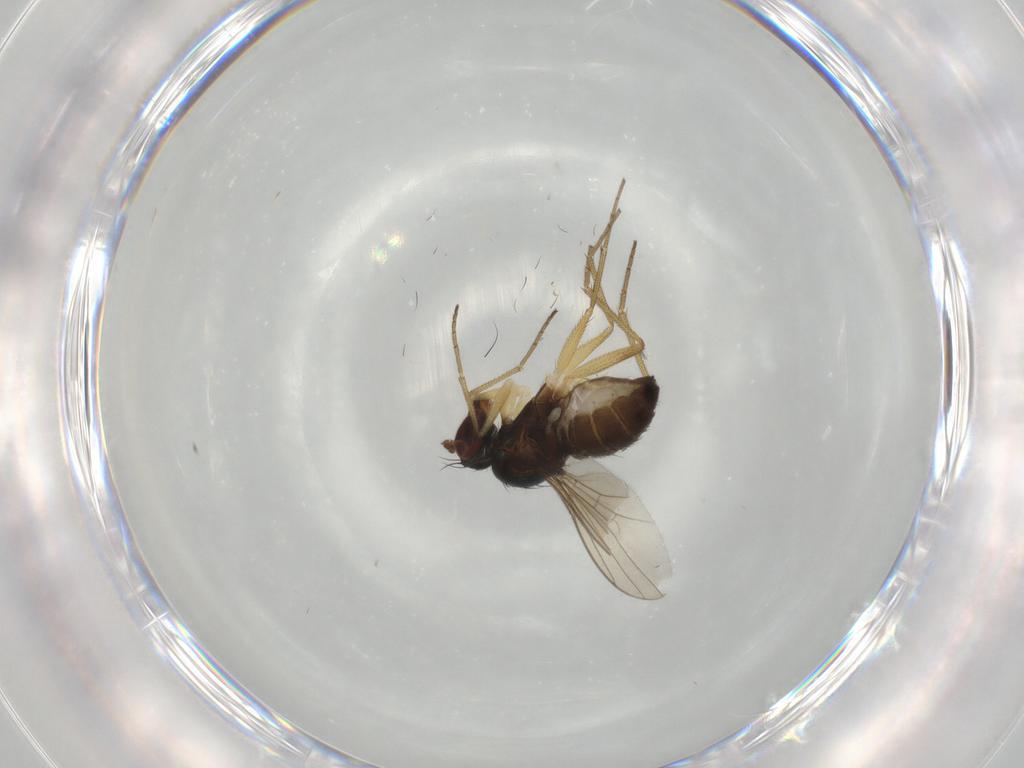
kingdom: Animalia
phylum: Arthropoda
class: Insecta
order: Diptera
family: Dolichopodidae
